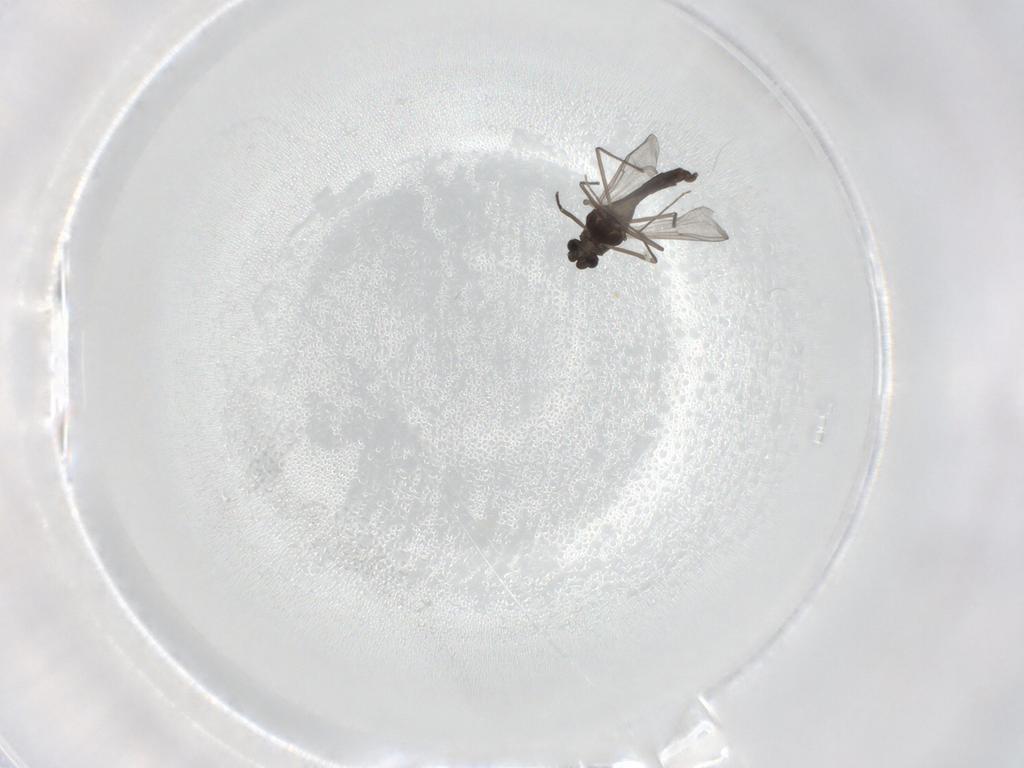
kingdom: Animalia
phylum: Arthropoda
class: Insecta
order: Diptera
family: Chironomidae
